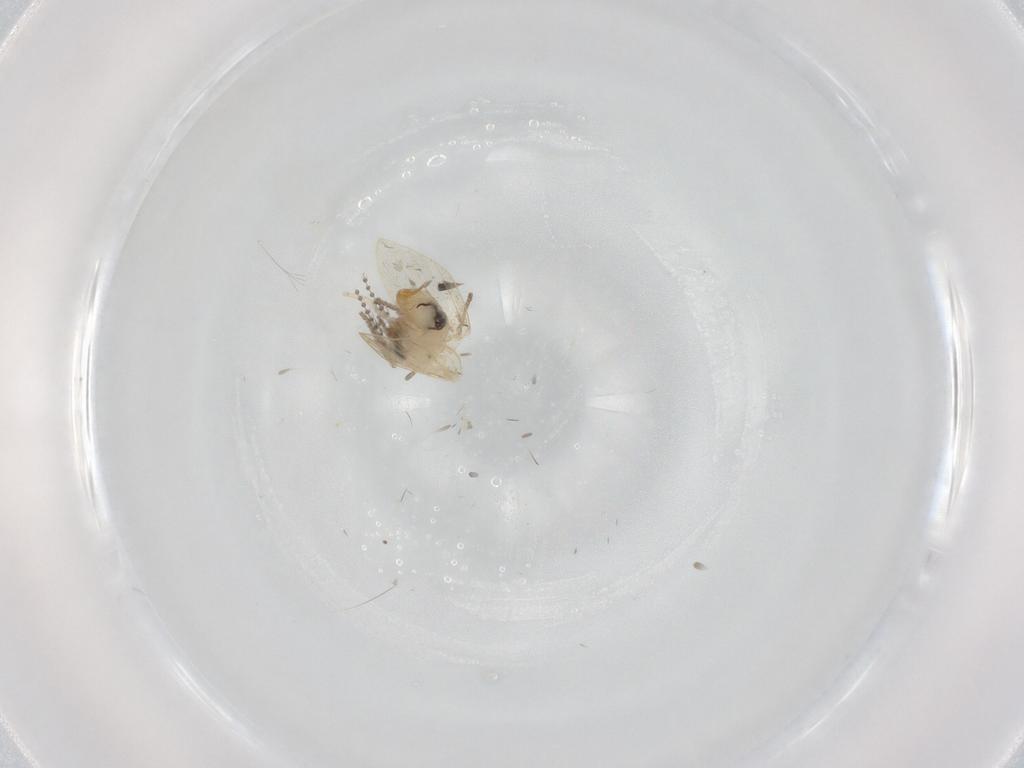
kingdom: Animalia
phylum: Arthropoda
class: Insecta
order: Diptera
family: Psychodidae
